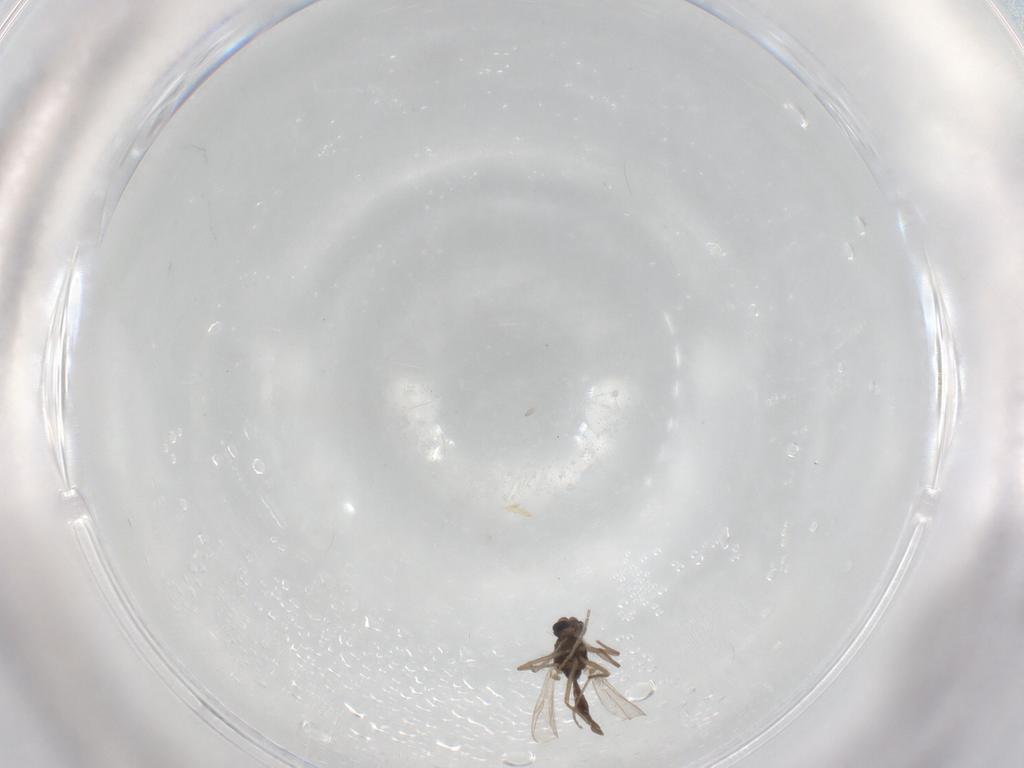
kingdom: Animalia
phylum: Arthropoda
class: Insecta
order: Diptera
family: Chironomidae
